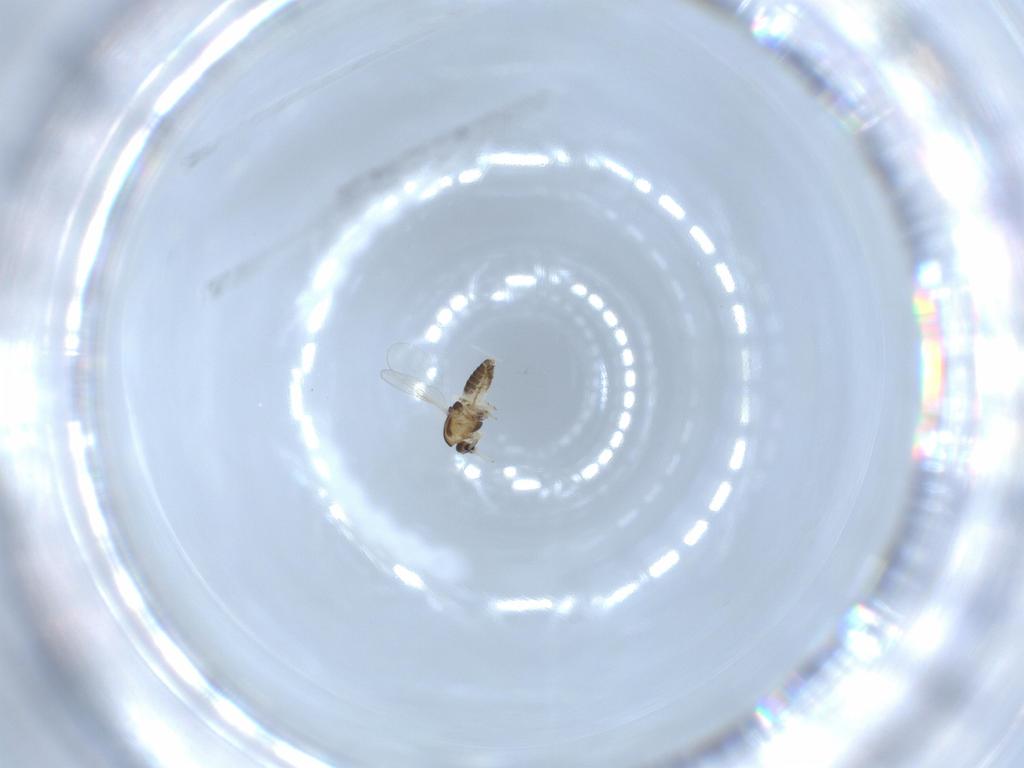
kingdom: Animalia
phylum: Arthropoda
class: Insecta
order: Diptera
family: Chironomidae
